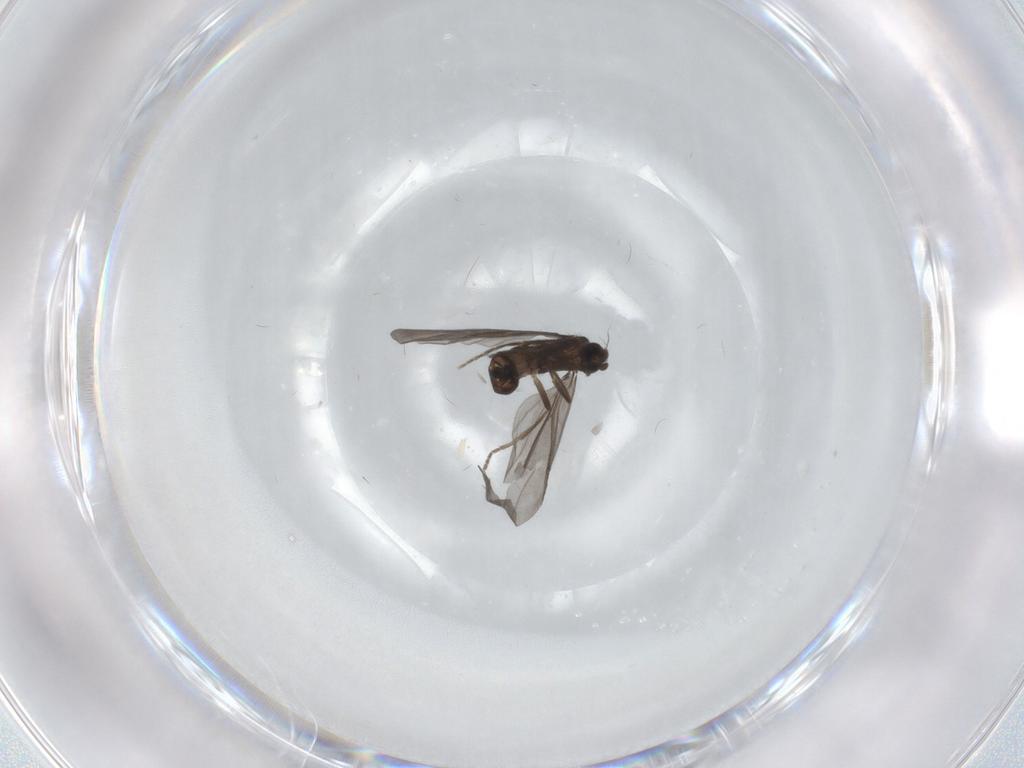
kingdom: Animalia
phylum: Arthropoda
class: Insecta
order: Diptera
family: Phoridae
